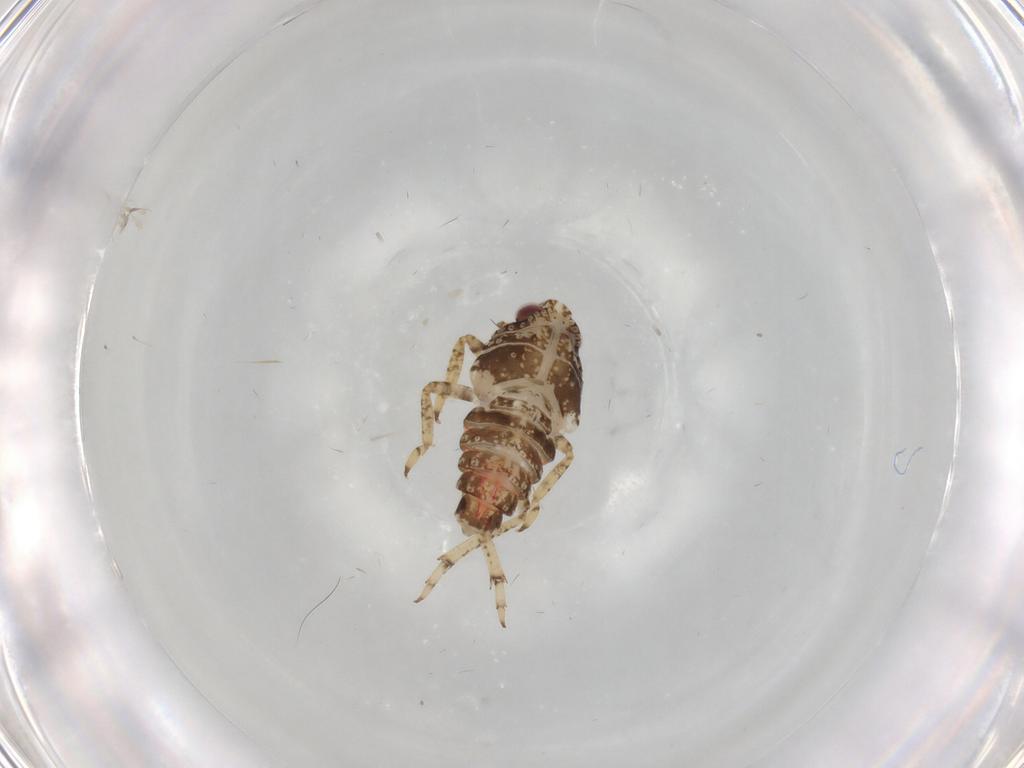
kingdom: Animalia
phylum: Arthropoda
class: Insecta
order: Hemiptera
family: Issidae
